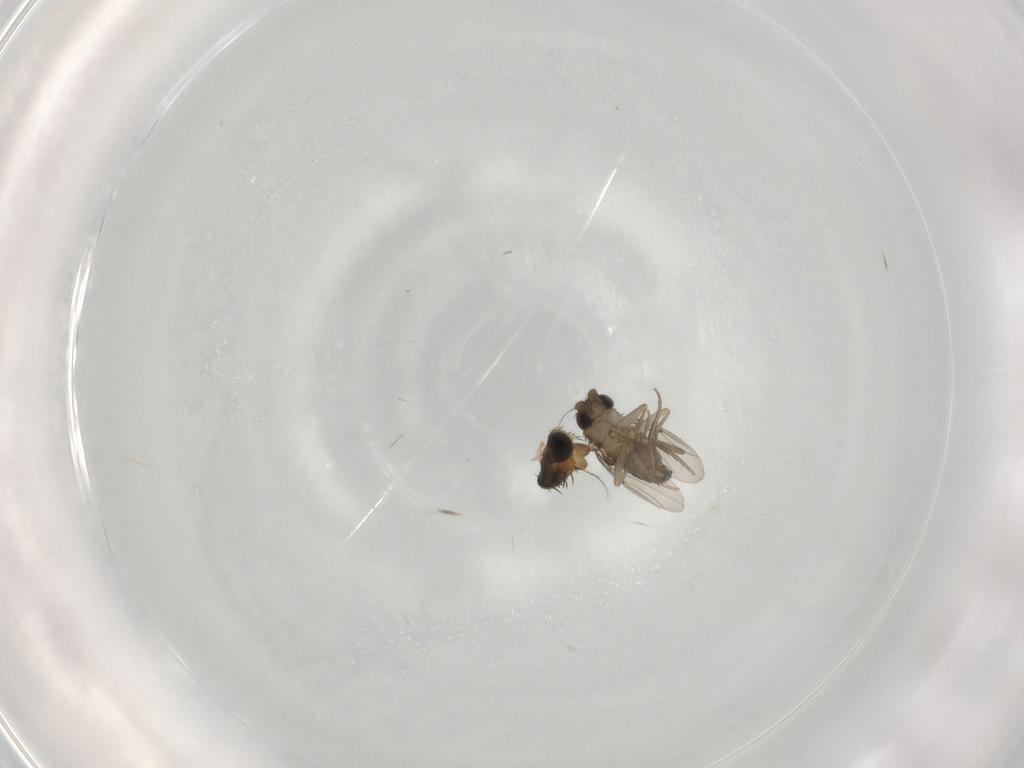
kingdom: Animalia
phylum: Arthropoda
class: Insecta
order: Diptera
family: Phoridae
